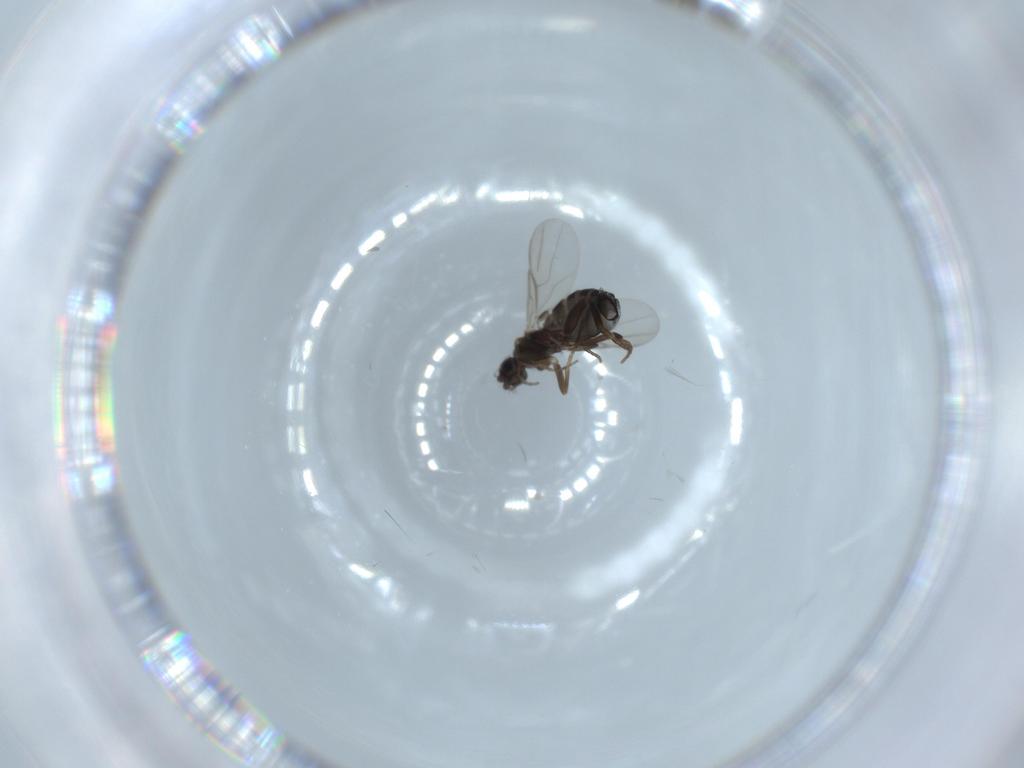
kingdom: Animalia
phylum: Arthropoda
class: Insecta
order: Diptera
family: Phoridae
